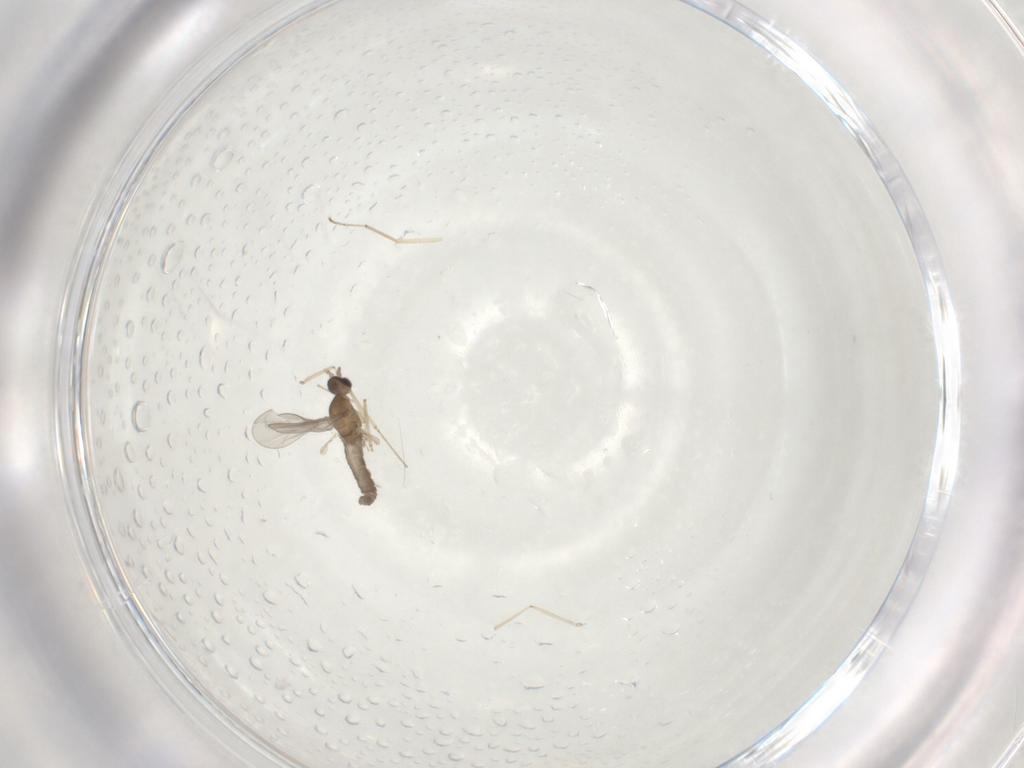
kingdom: Animalia
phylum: Arthropoda
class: Insecta
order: Diptera
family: Cecidomyiidae
